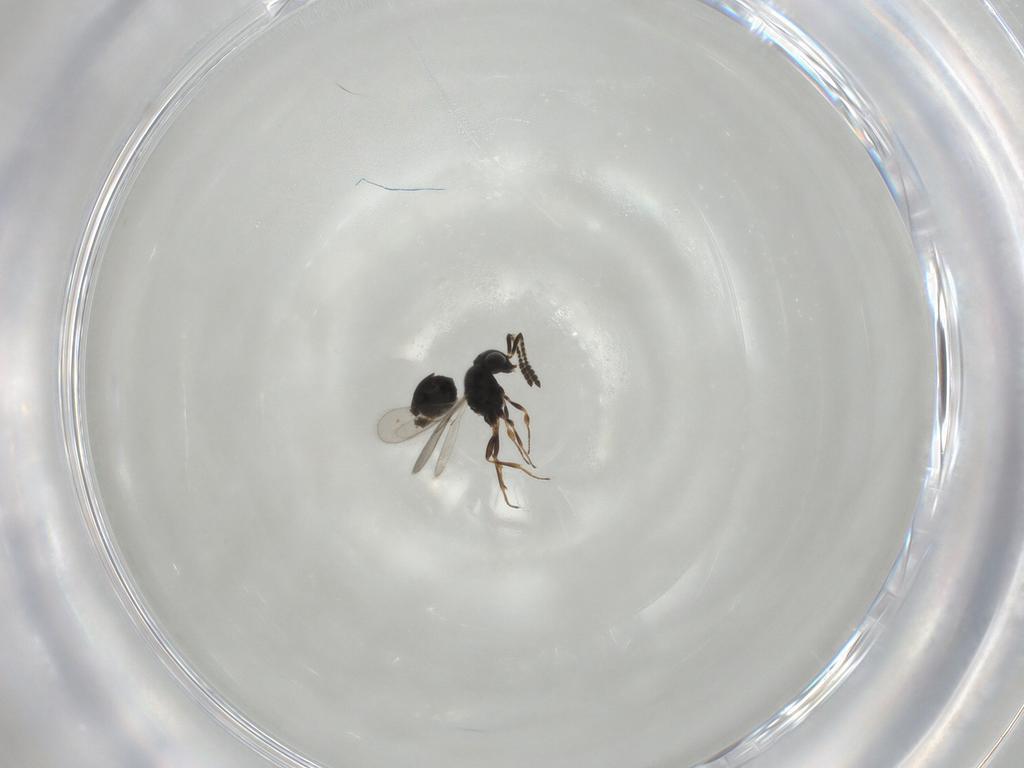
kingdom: Animalia
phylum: Arthropoda
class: Insecta
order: Hymenoptera
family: Scelionidae
